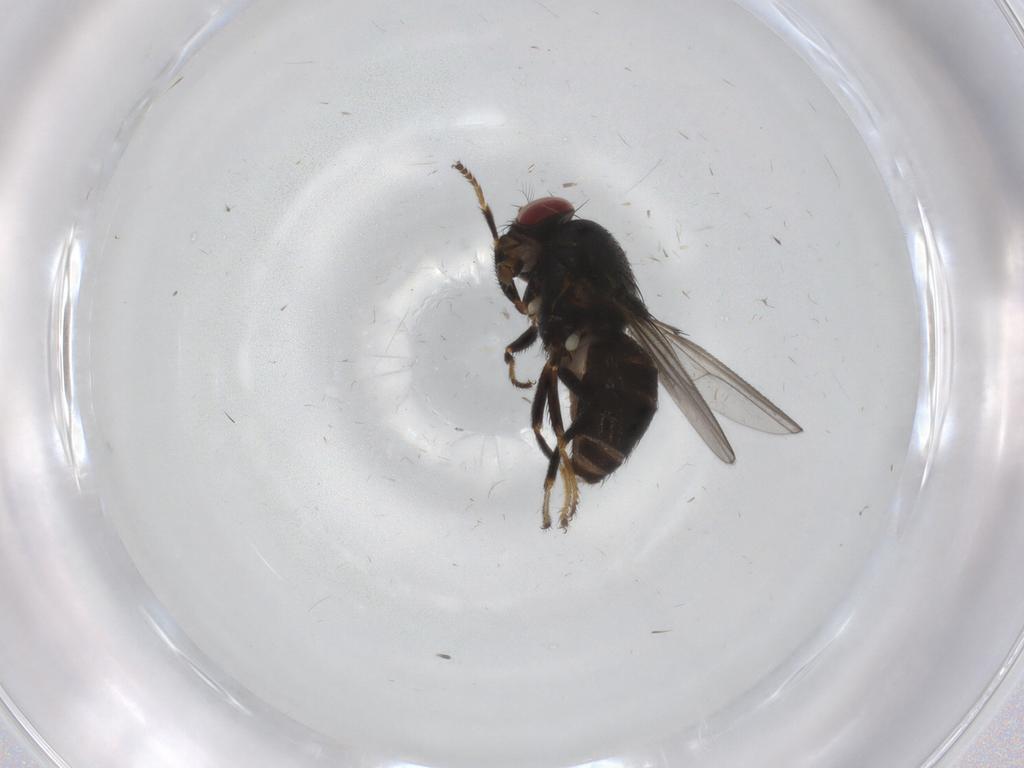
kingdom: Animalia
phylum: Arthropoda
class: Insecta
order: Diptera
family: Ephydridae
